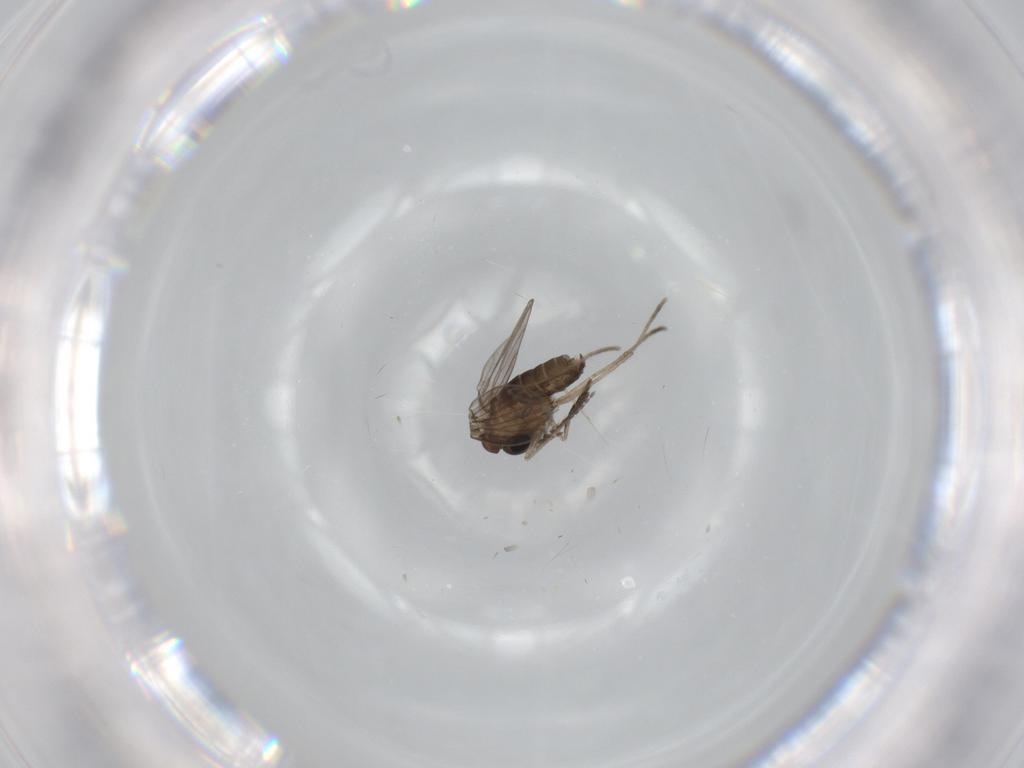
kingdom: Animalia
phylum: Arthropoda
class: Insecta
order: Diptera
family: Psychodidae
